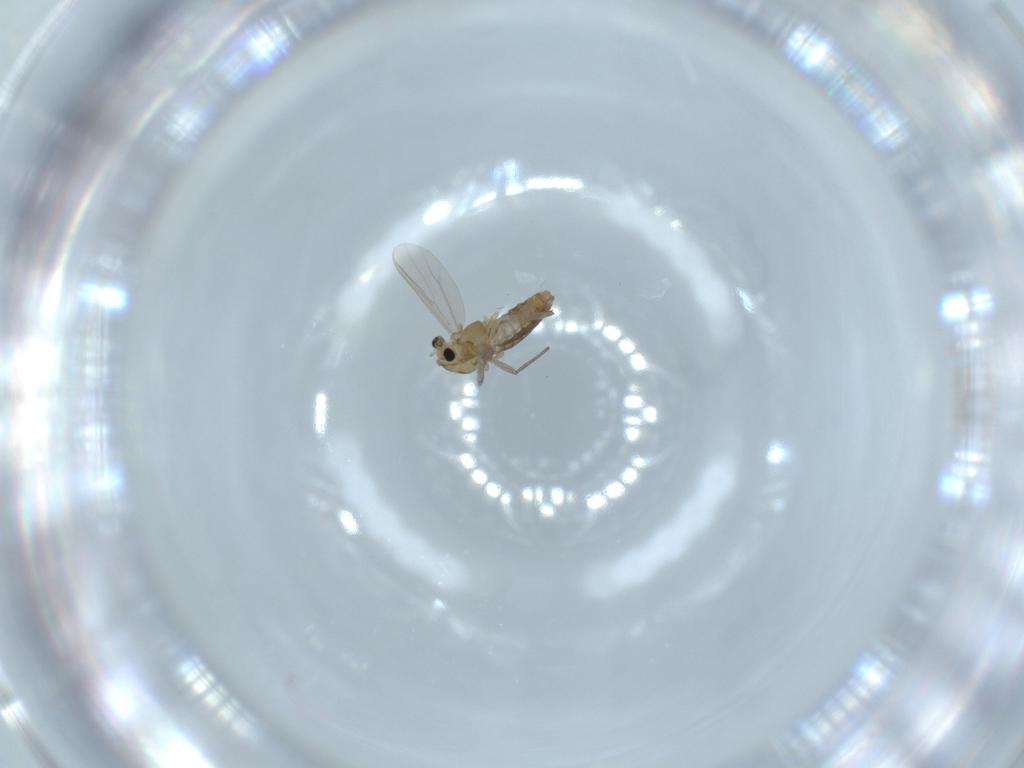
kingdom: Animalia
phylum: Arthropoda
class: Insecta
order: Diptera
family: Chironomidae
